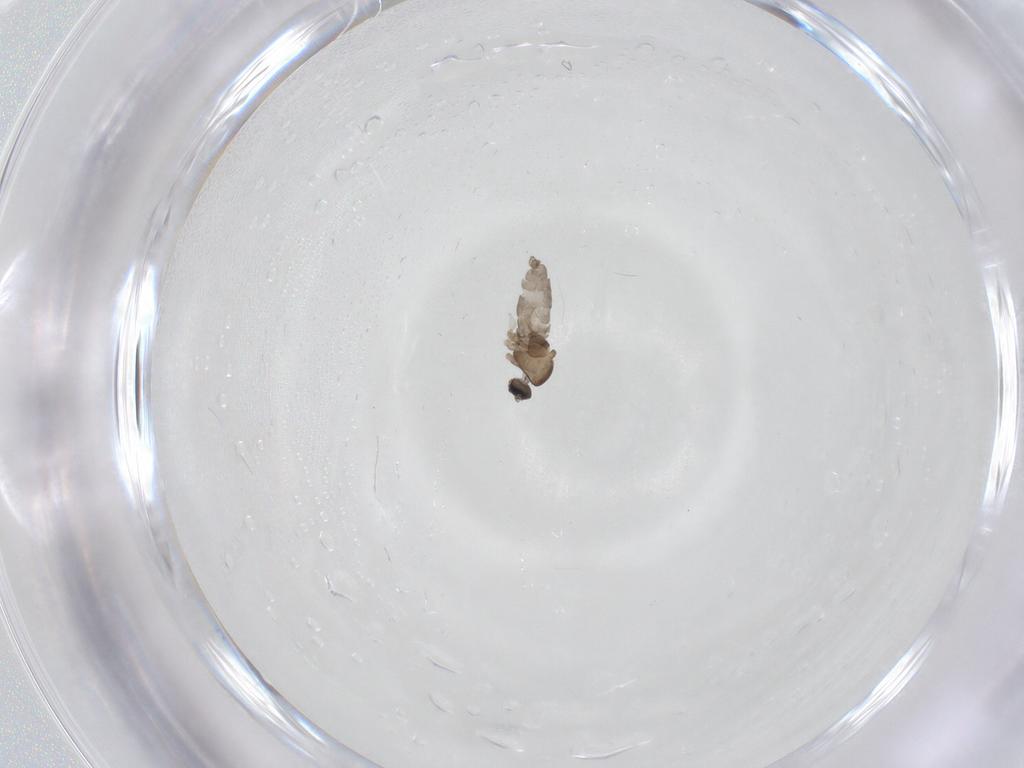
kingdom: Animalia
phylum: Arthropoda
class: Insecta
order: Diptera
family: Cecidomyiidae
